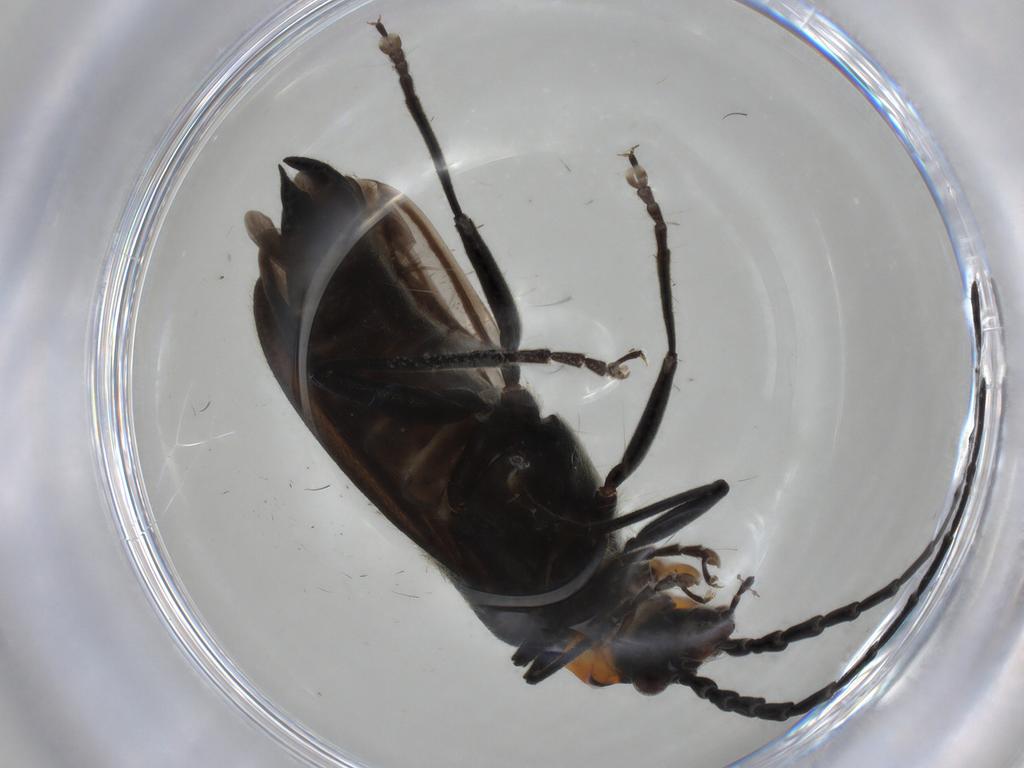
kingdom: Animalia
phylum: Arthropoda
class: Insecta
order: Coleoptera
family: Cantharidae
